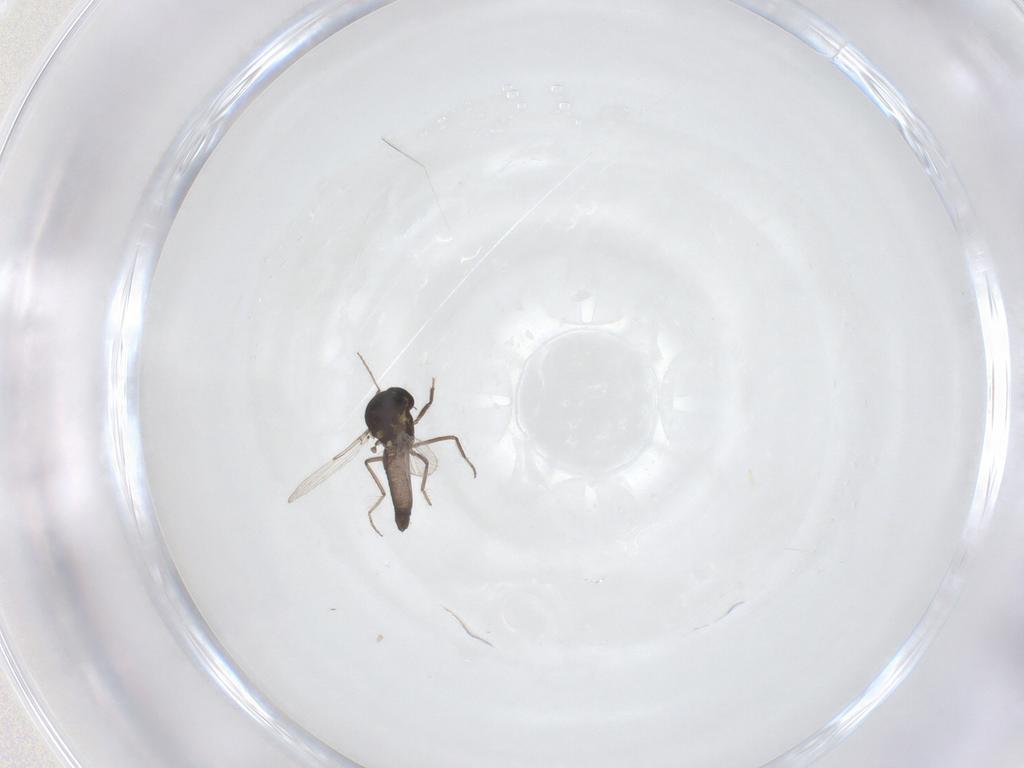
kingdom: Animalia
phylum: Arthropoda
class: Insecta
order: Diptera
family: Ceratopogonidae
